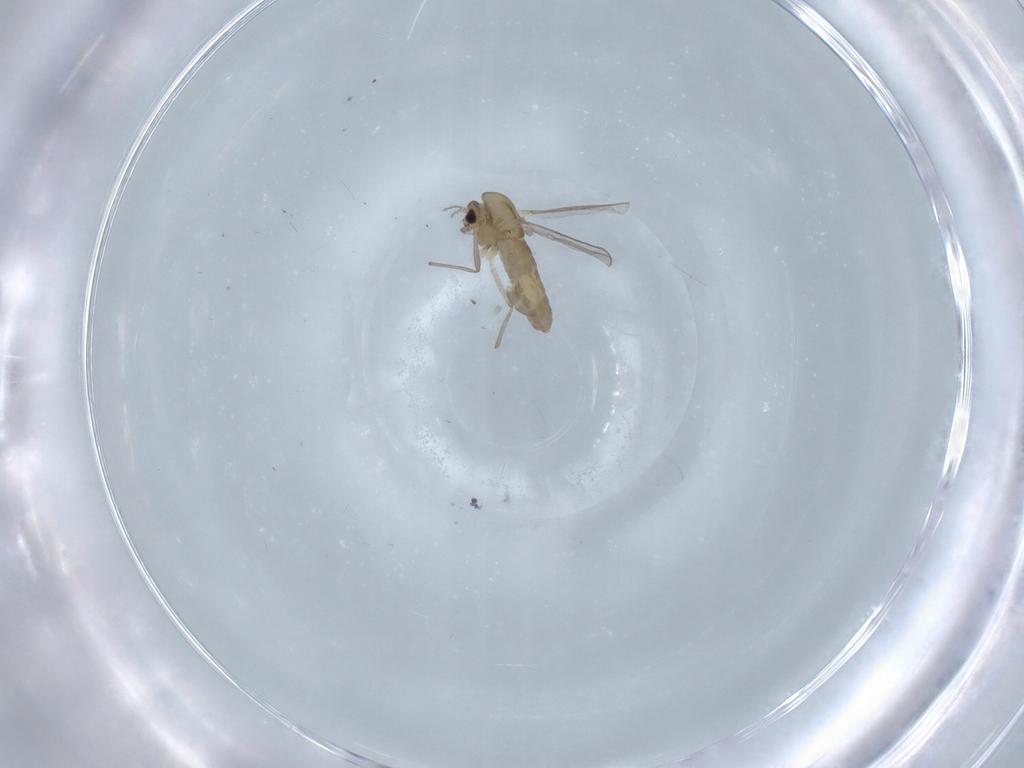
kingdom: Animalia
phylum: Arthropoda
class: Insecta
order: Diptera
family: Chironomidae
